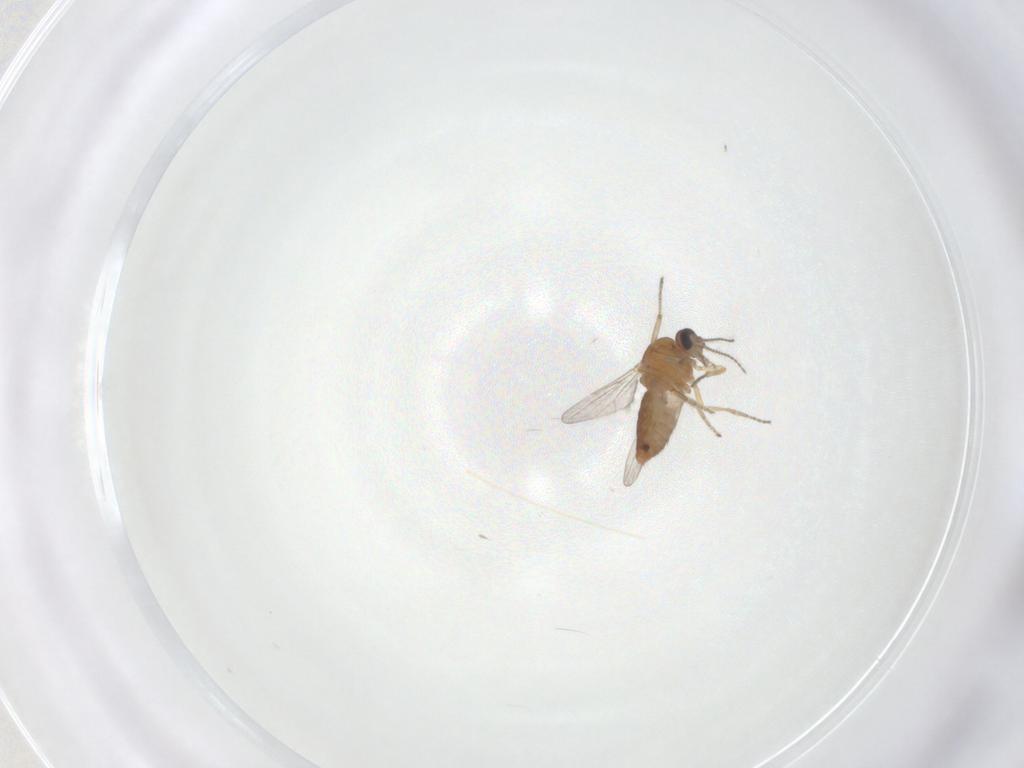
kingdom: Animalia
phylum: Arthropoda
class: Insecta
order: Diptera
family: Ceratopogonidae
